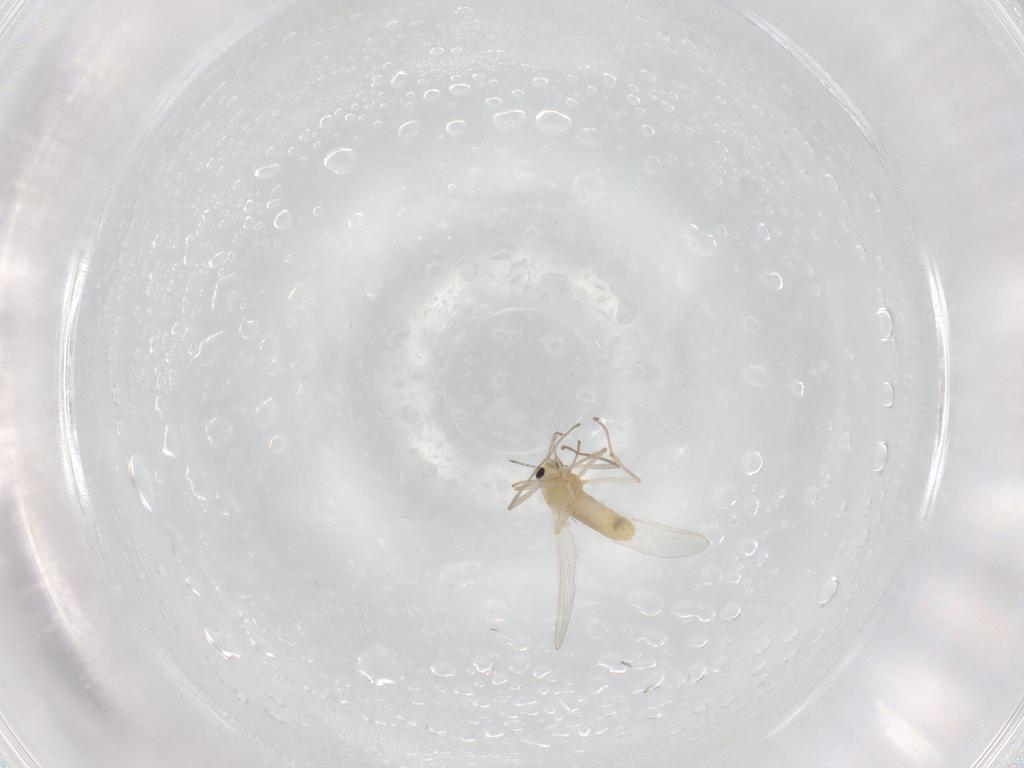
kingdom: Animalia
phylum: Arthropoda
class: Insecta
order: Diptera
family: Chironomidae
